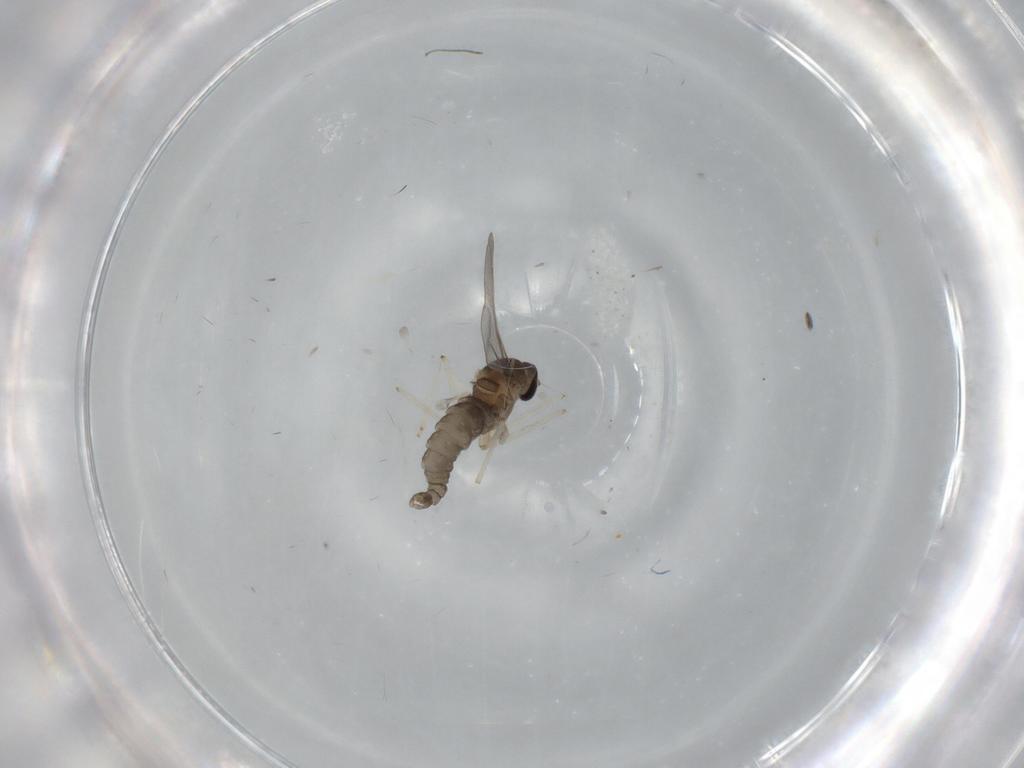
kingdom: Animalia
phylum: Arthropoda
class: Insecta
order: Diptera
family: Cecidomyiidae
